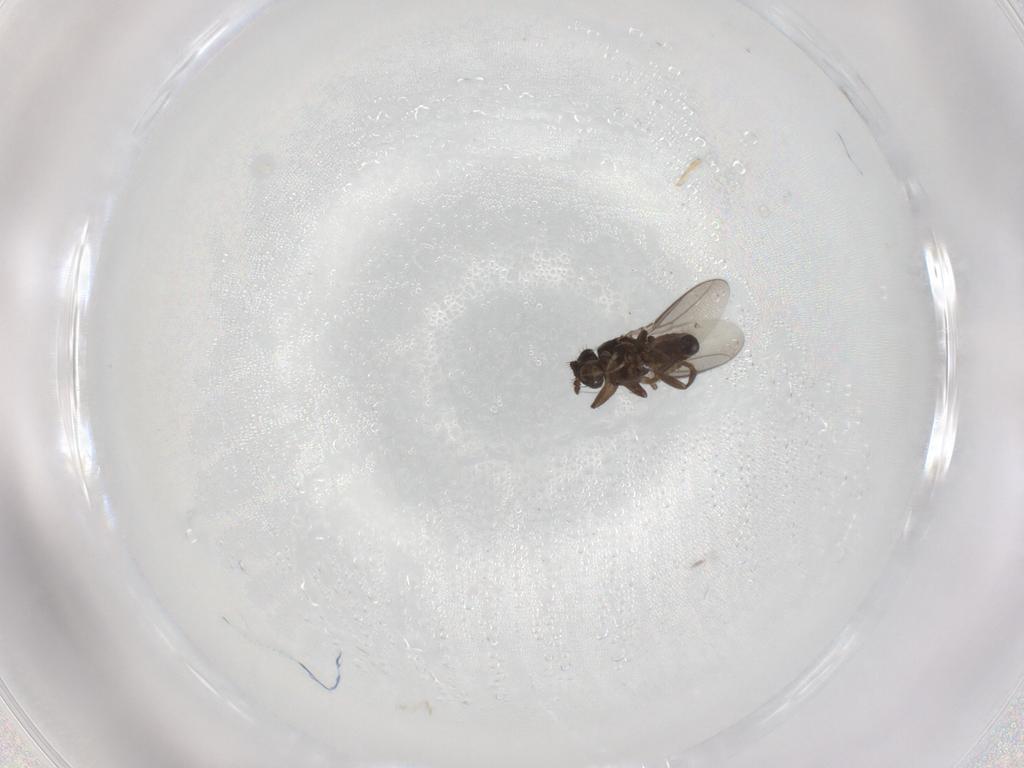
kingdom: Animalia
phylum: Arthropoda
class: Insecta
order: Diptera
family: Sphaeroceridae
